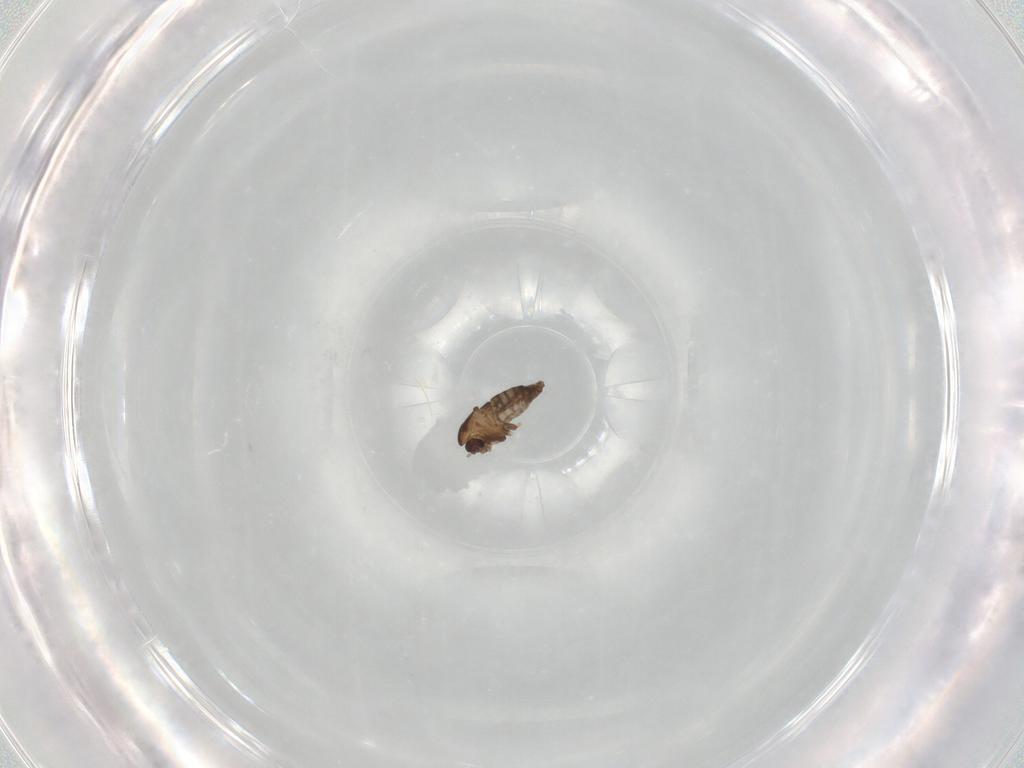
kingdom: Animalia
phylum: Arthropoda
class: Insecta
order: Diptera
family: Chironomidae
